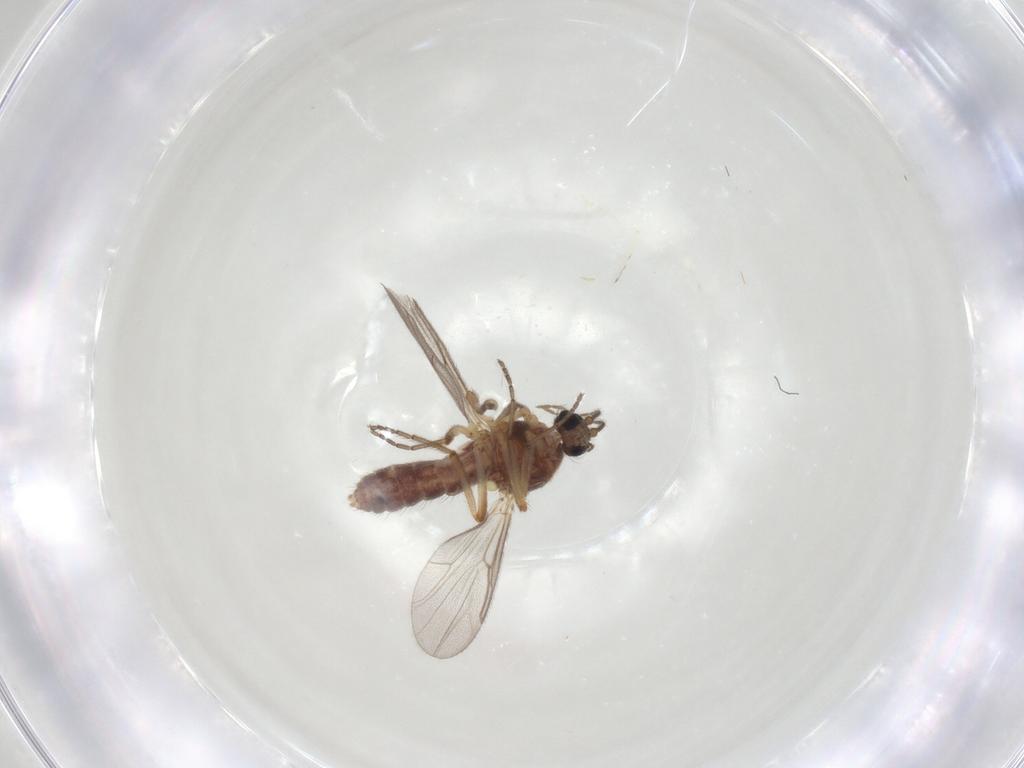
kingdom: Animalia
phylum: Arthropoda
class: Insecta
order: Diptera
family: Ceratopogonidae
